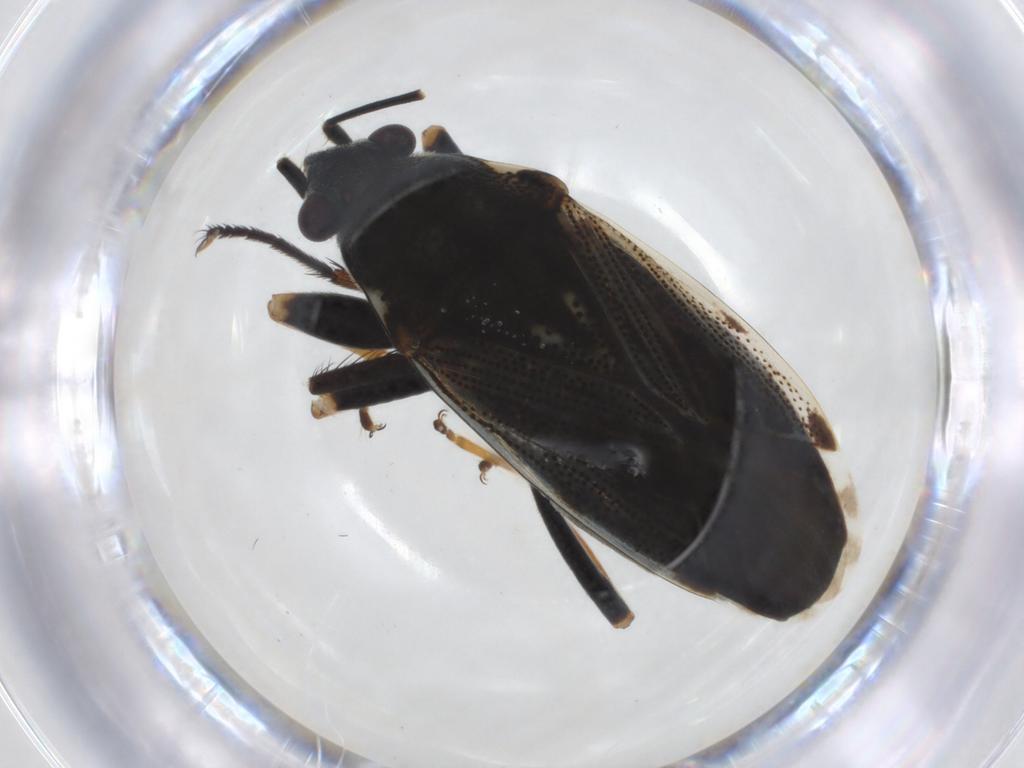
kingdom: Animalia
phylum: Arthropoda
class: Insecta
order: Hemiptera
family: Rhyparochromidae
